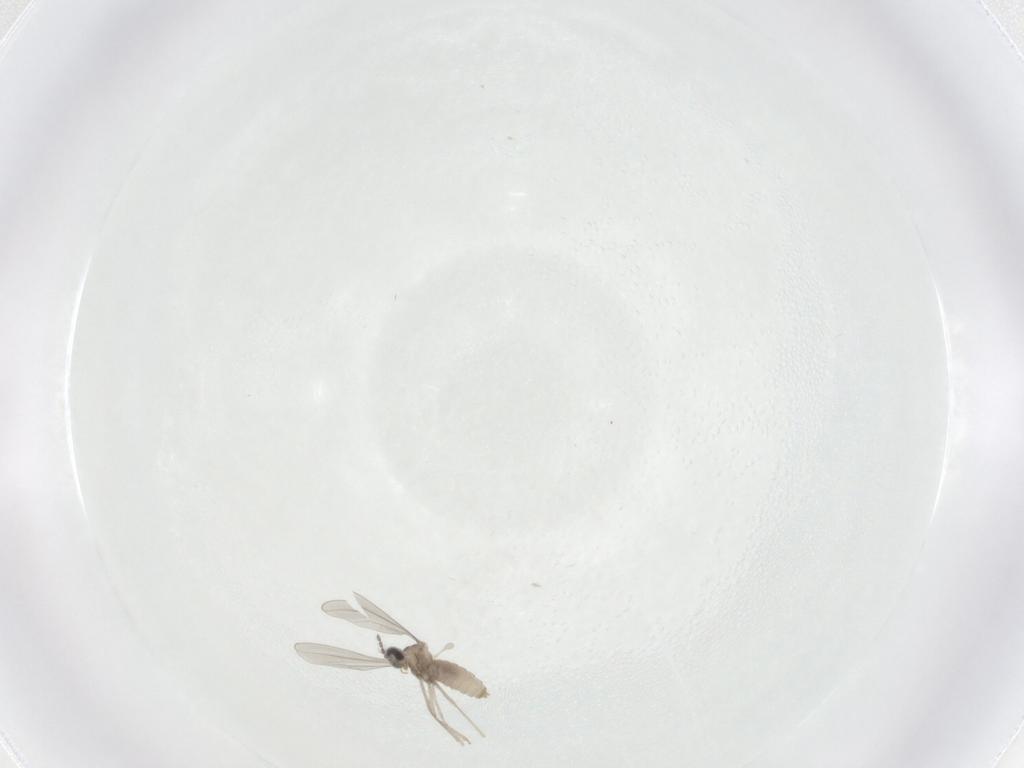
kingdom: Animalia
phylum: Arthropoda
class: Insecta
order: Diptera
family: Cecidomyiidae
